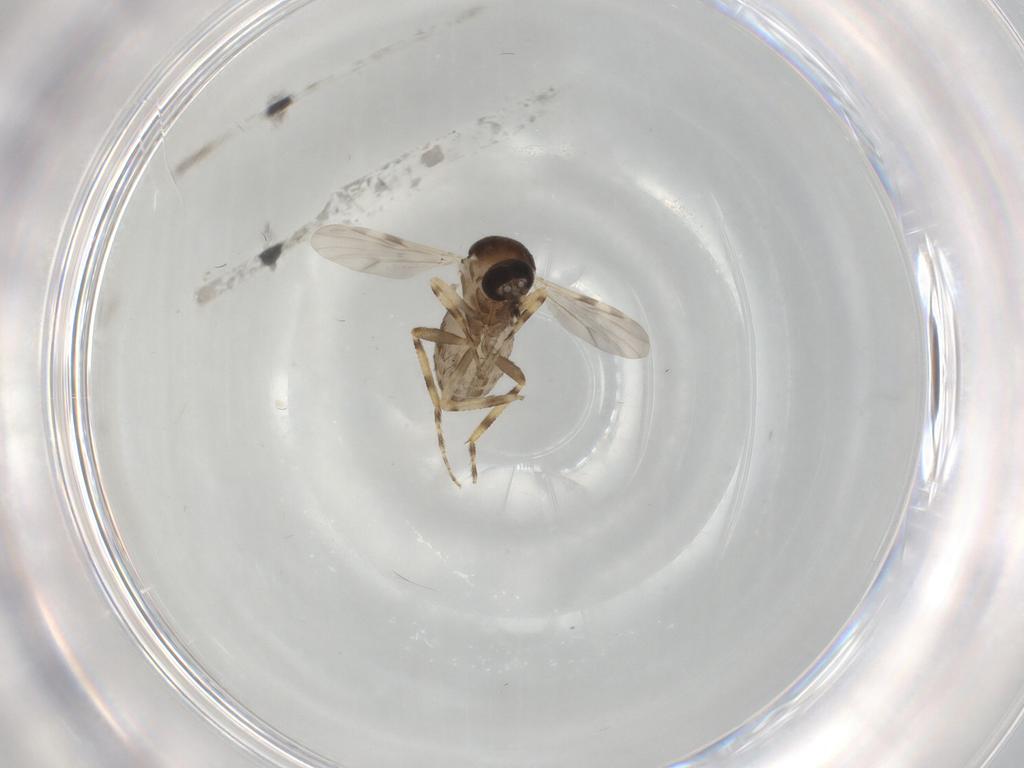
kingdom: Animalia
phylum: Arthropoda
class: Insecta
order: Diptera
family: Ceratopogonidae
